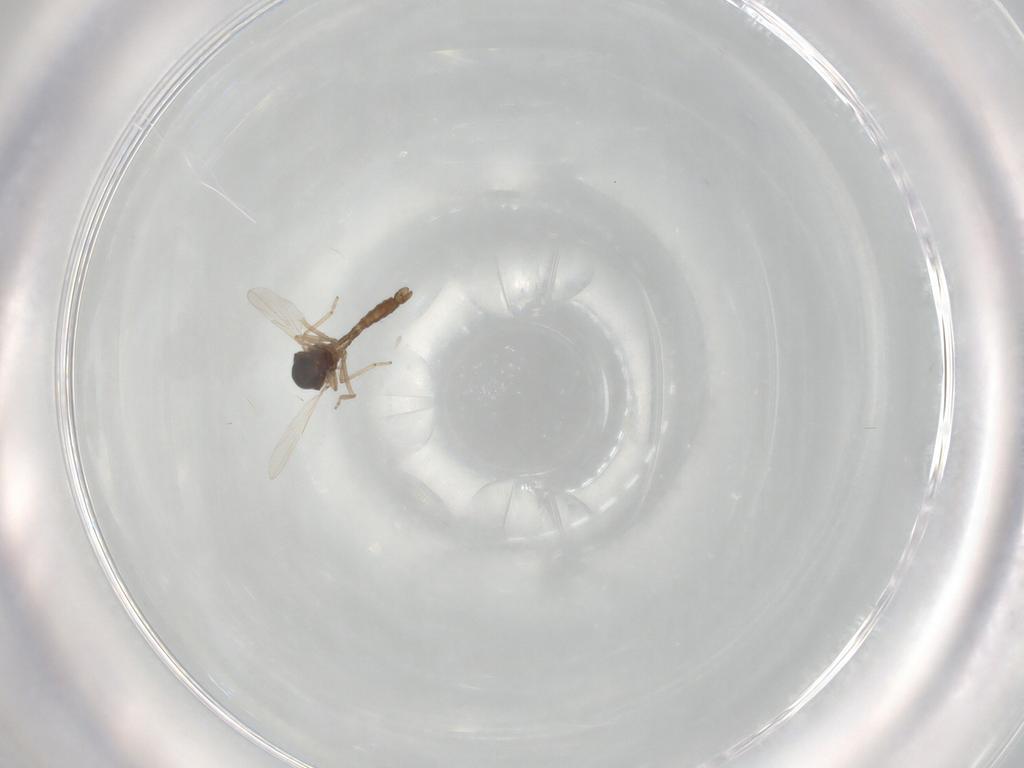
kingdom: Animalia
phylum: Arthropoda
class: Insecta
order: Diptera
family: Ceratopogonidae
